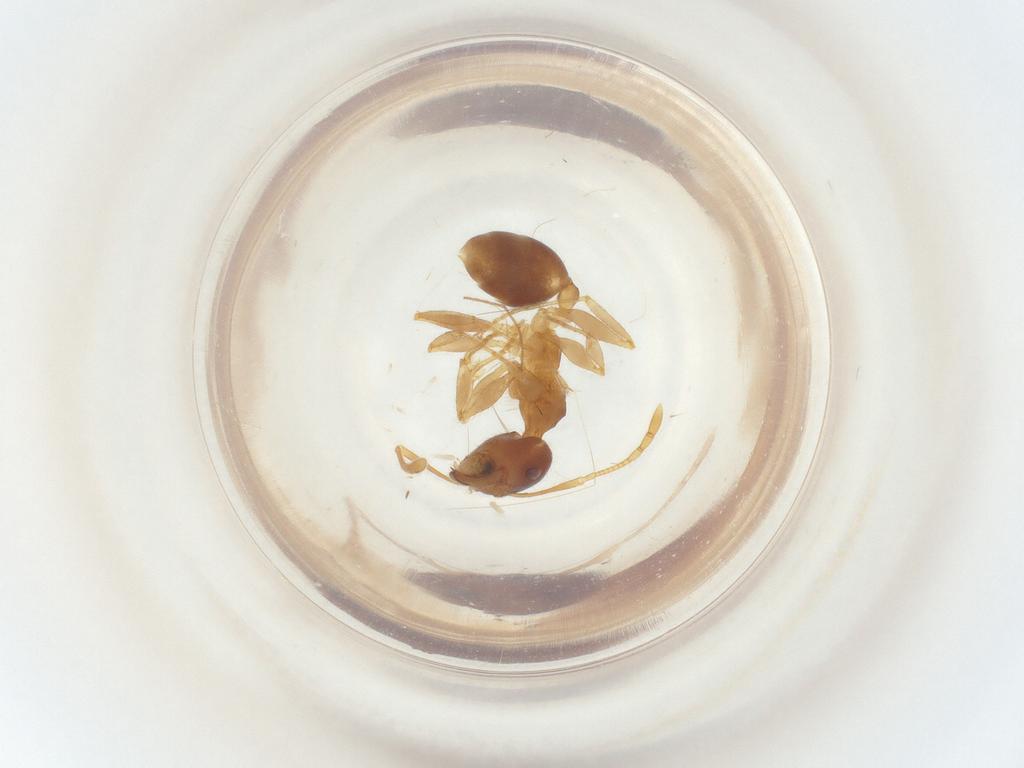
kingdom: Animalia
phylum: Arthropoda
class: Insecta
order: Hymenoptera
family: Formicidae
